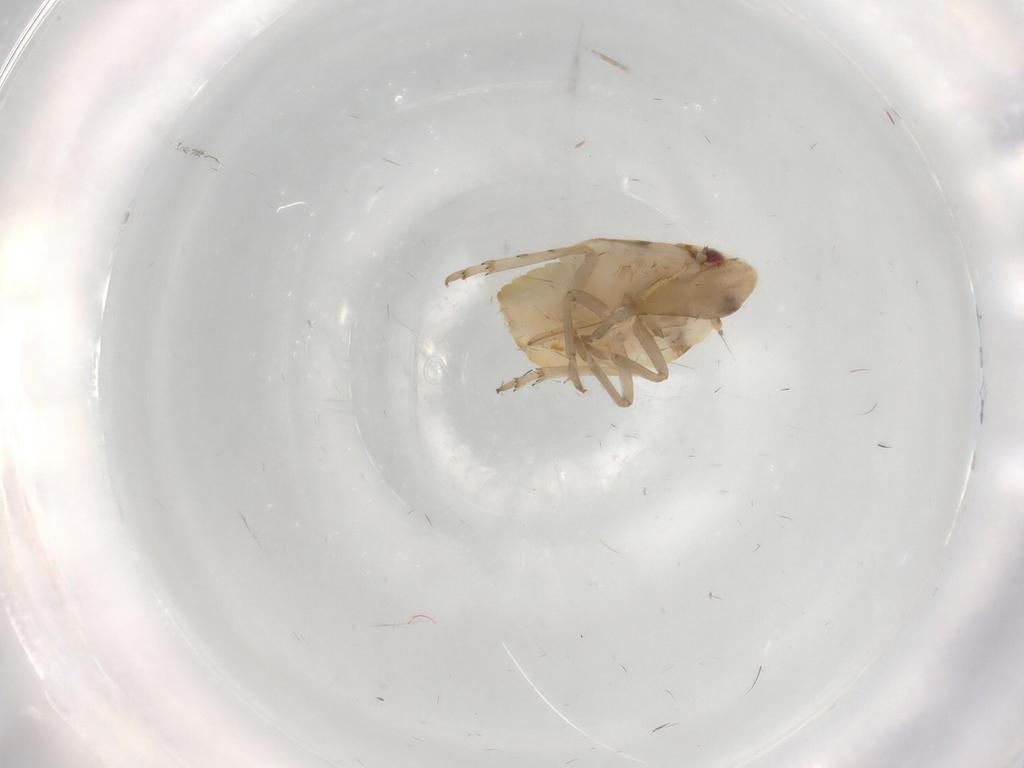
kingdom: Animalia
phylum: Arthropoda
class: Insecta
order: Hemiptera
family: Flatidae
